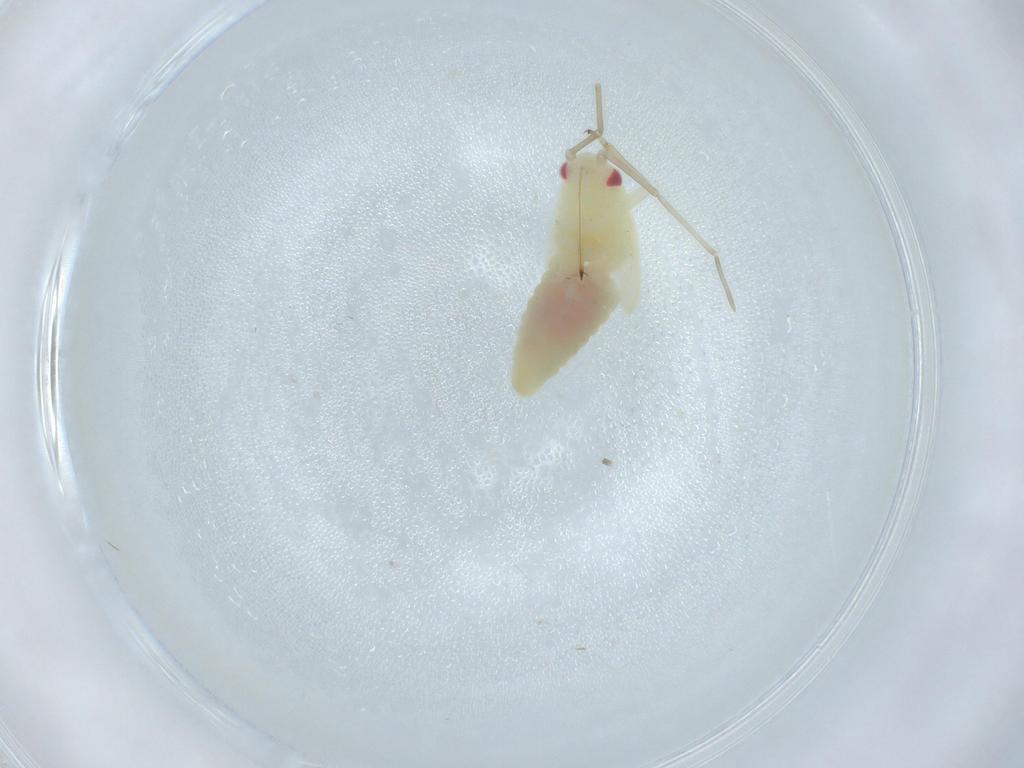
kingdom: Animalia
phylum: Arthropoda
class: Insecta
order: Hemiptera
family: Miridae
